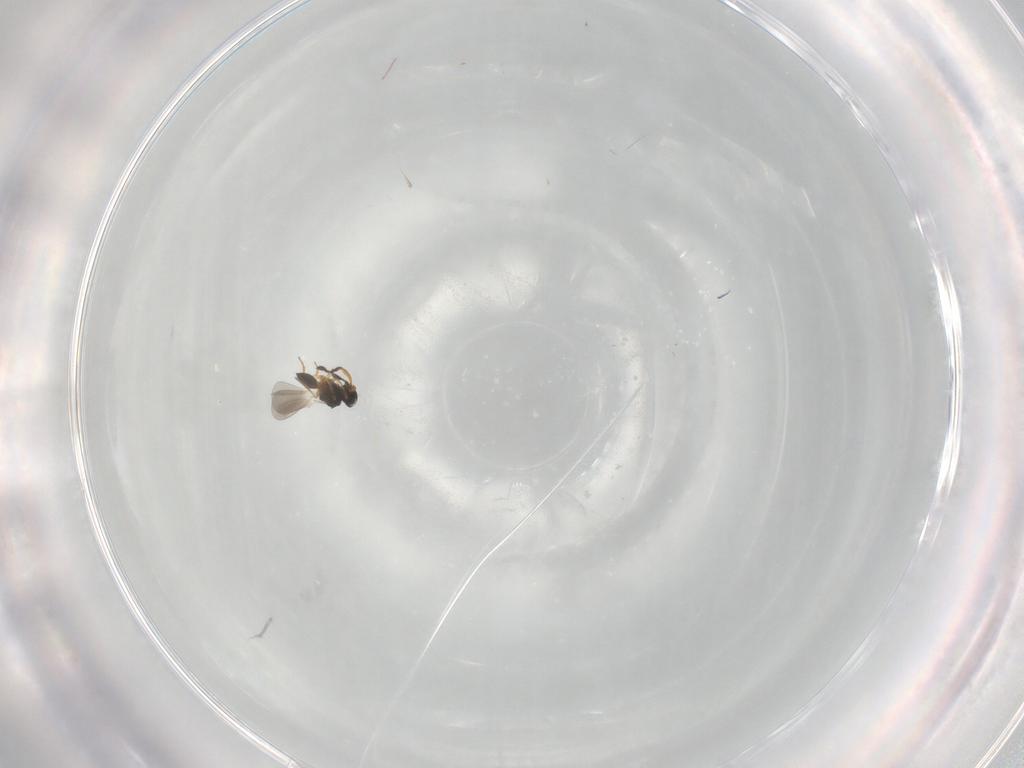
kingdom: Animalia
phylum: Arthropoda
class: Insecta
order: Hymenoptera
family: Platygastridae
